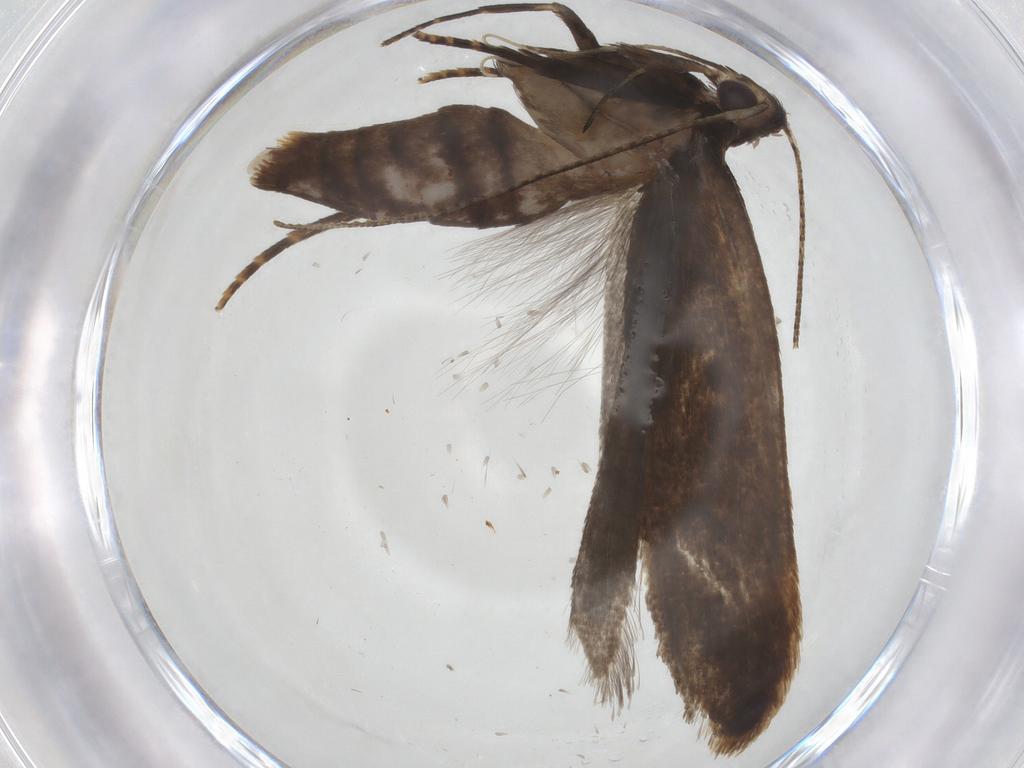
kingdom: Animalia
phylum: Arthropoda
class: Insecta
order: Lepidoptera
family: Gelechiidae
